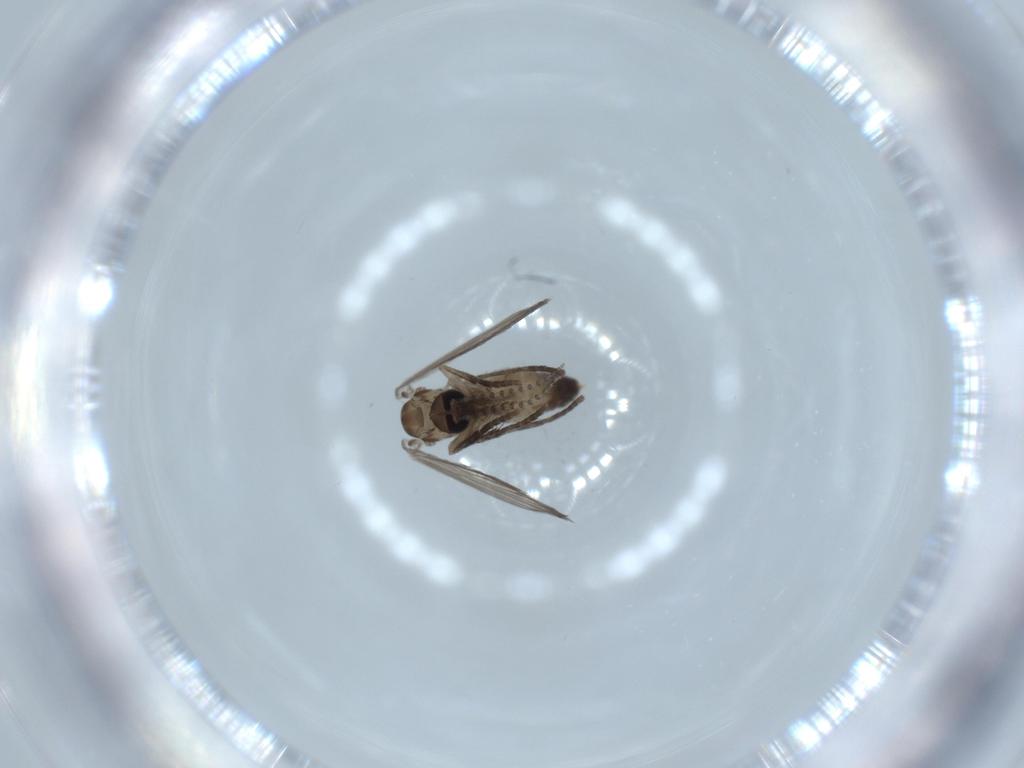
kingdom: Animalia
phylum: Arthropoda
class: Insecta
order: Diptera
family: Psychodidae
